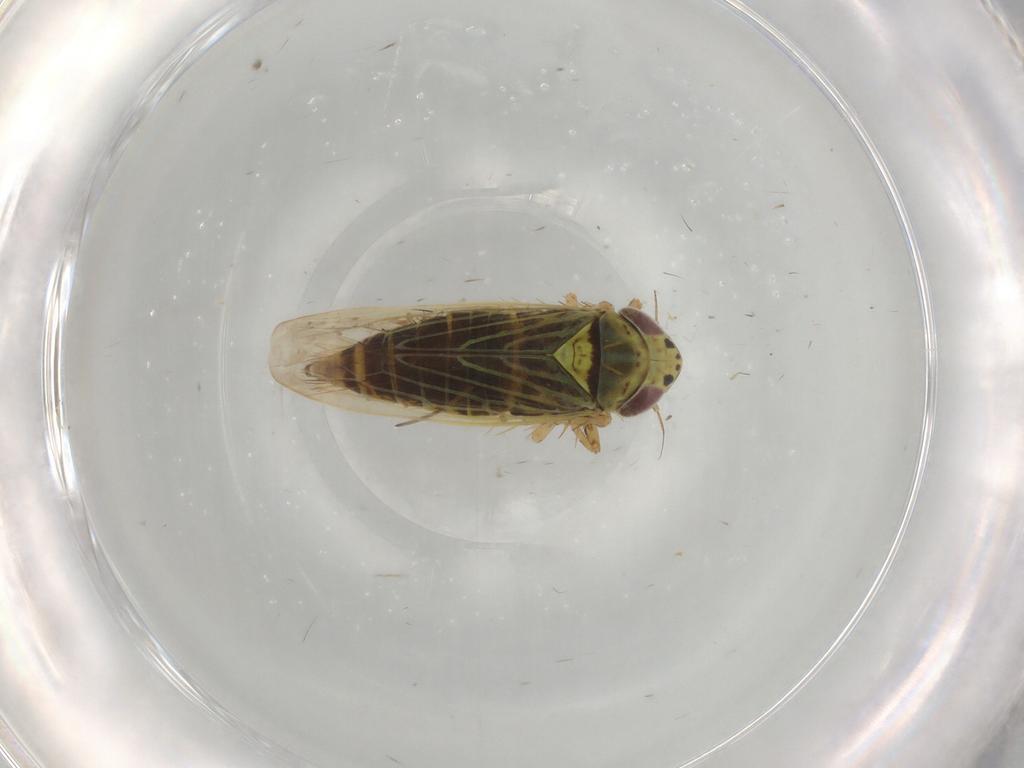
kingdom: Animalia
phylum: Arthropoda
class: Insecta
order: Hemiptera
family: Cicadellidae
